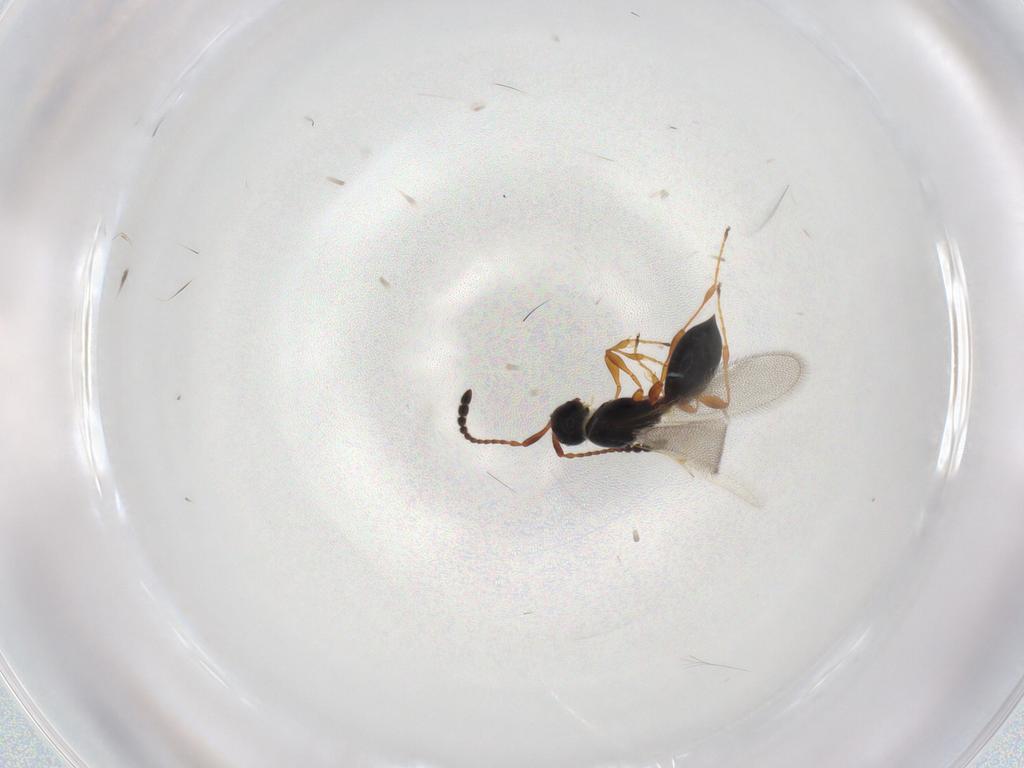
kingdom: Animalia
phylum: Arthropoda
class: Insecta
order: Hymenoptera
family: Diapriidae
